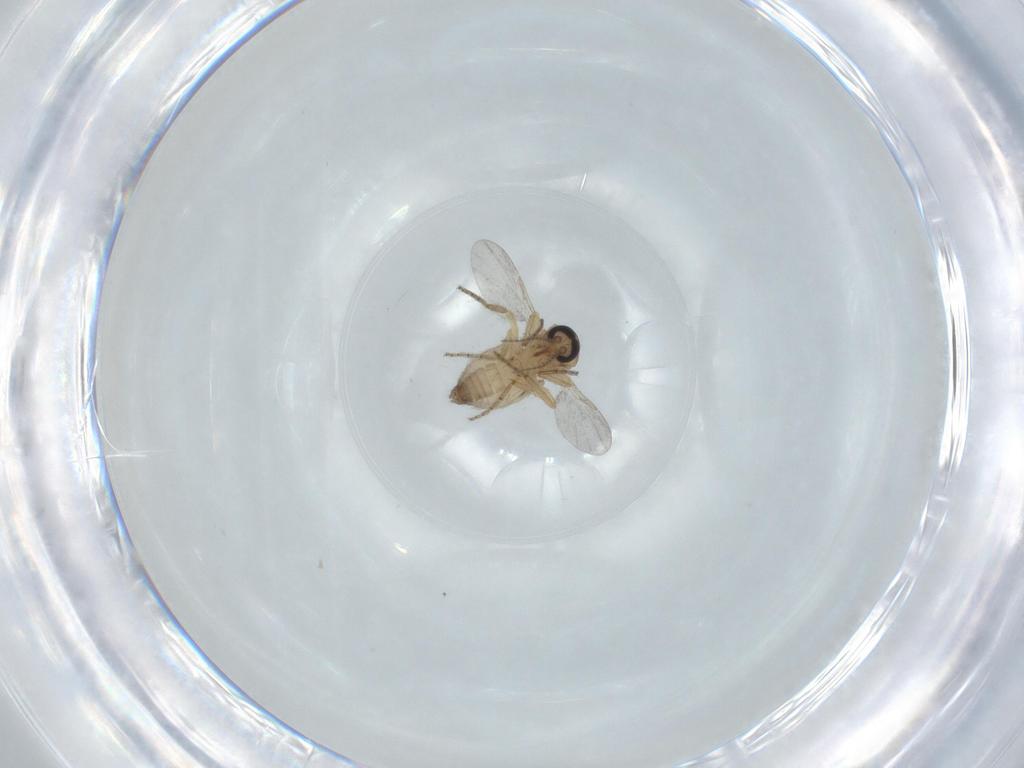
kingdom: Animalia
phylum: Arthropoda
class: Insecta
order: Diptera
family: Ceratopogonidae
